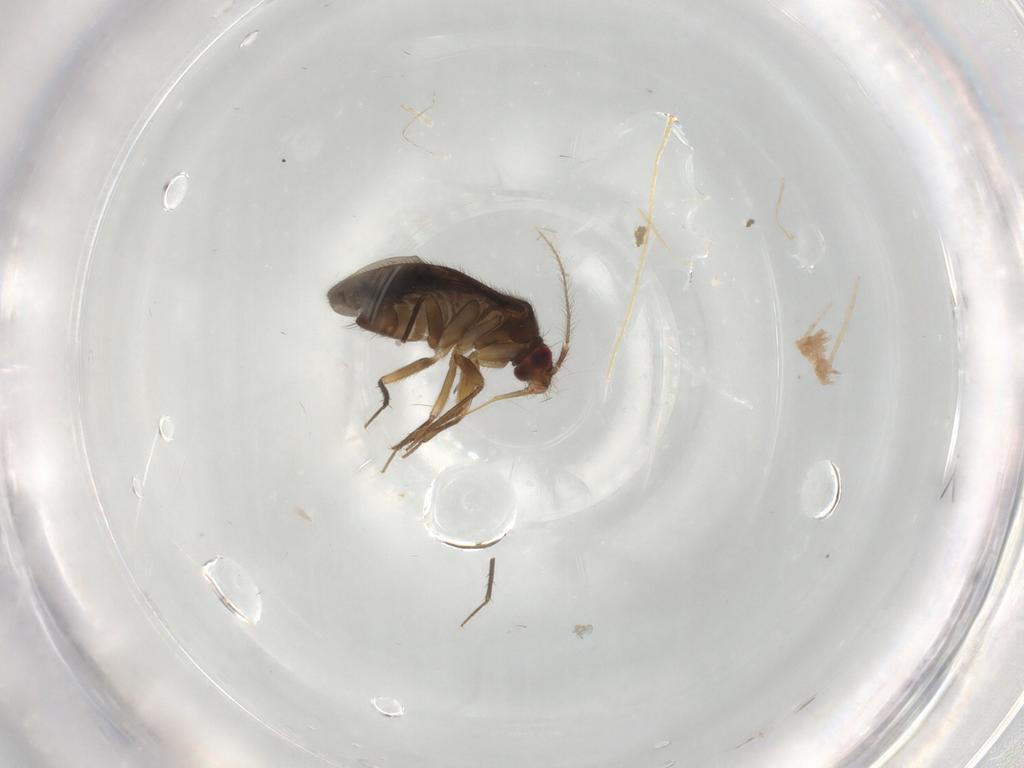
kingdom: Animalia
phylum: Arthropoda
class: Insecta
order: Hemiptera
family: Ceratocombidae
